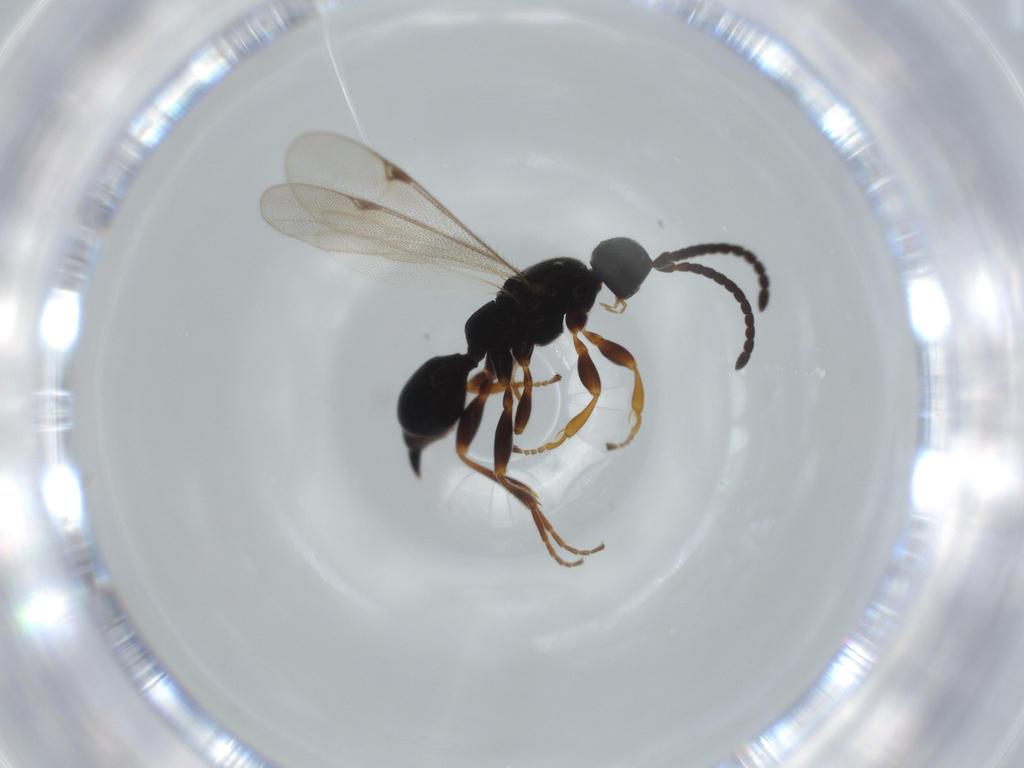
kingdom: Animalia
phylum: Arthropoda
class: Insecta
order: Hymenoptera
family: Proctotrupidae
